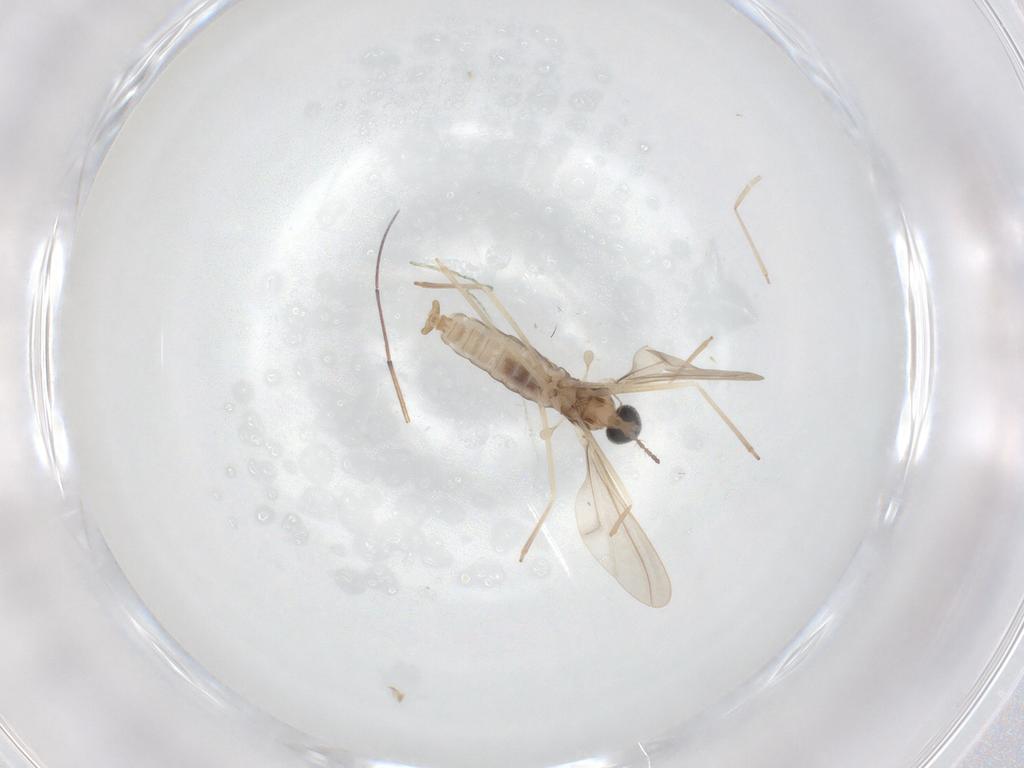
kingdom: Animalia
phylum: Arthropoda
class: Insecta
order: Diptera
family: Cecidomyiidae
